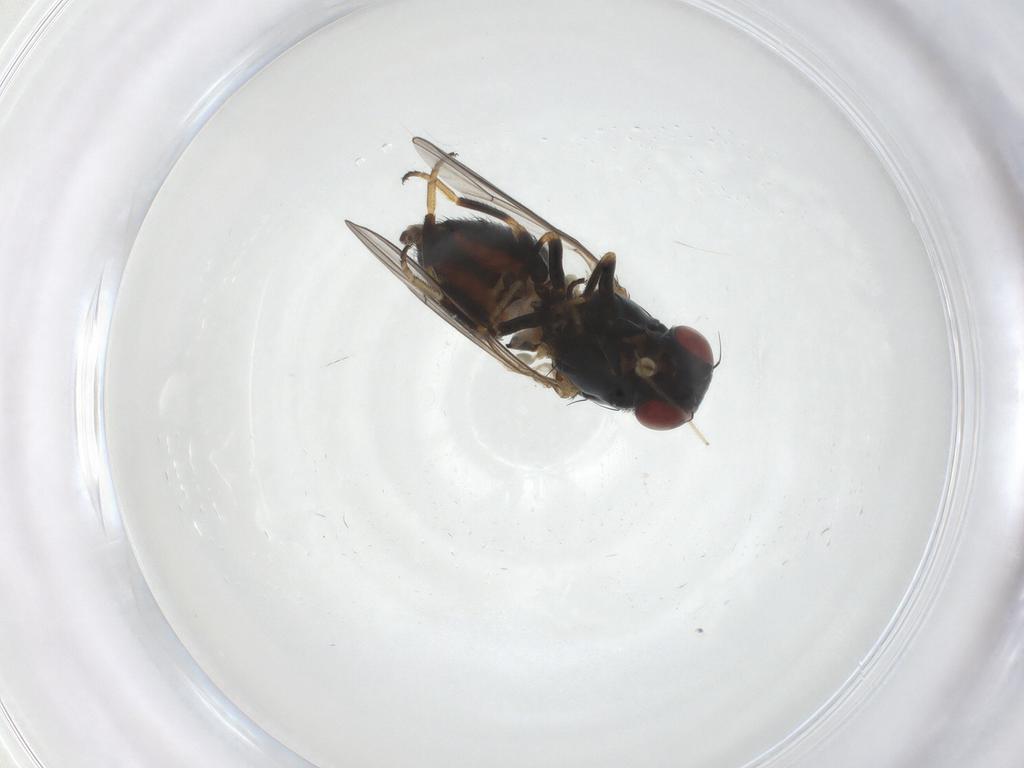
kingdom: Animalia
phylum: Arthropoda
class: Insecta
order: Diptera
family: Chamaemyiidae
